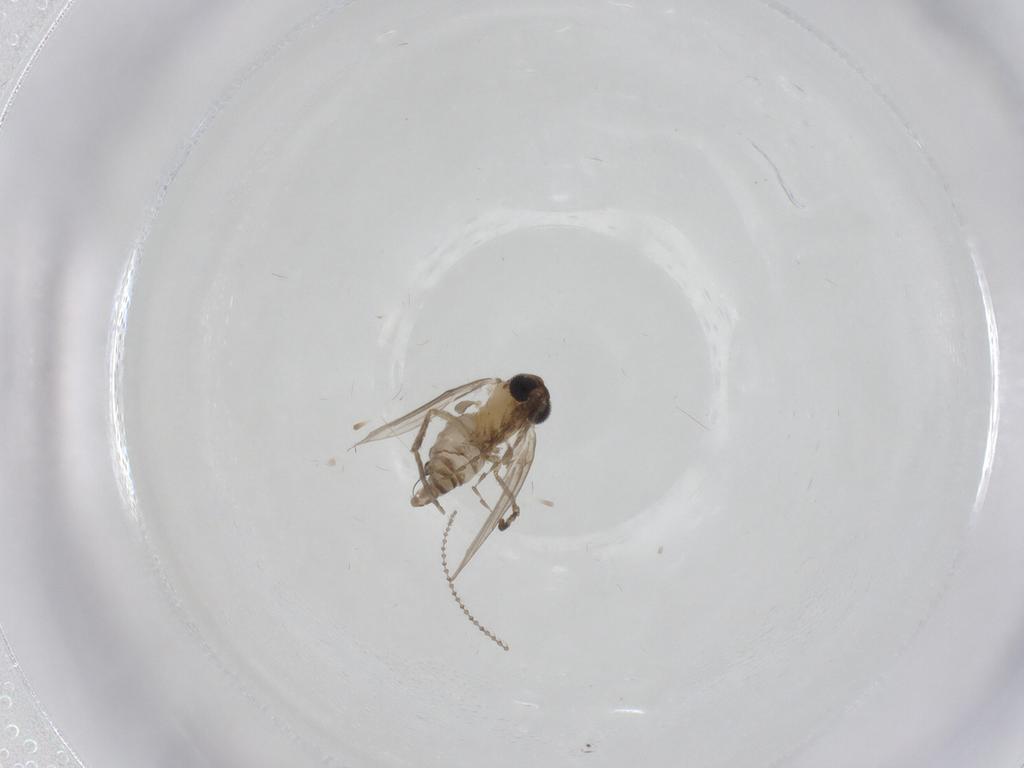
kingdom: Animalia
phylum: Arthropoda
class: Insecta
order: Diptera
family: Psychodidae
